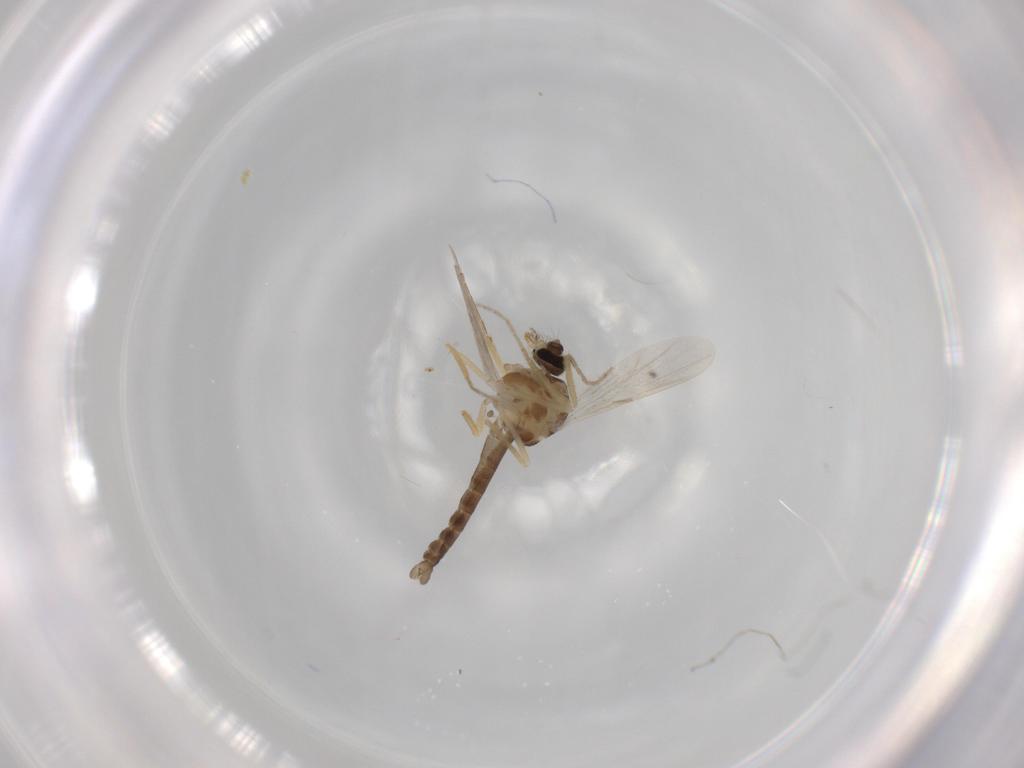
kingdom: Animalia
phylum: Arthropoda
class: Insecta
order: Diptera
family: Ceratopogonidae
